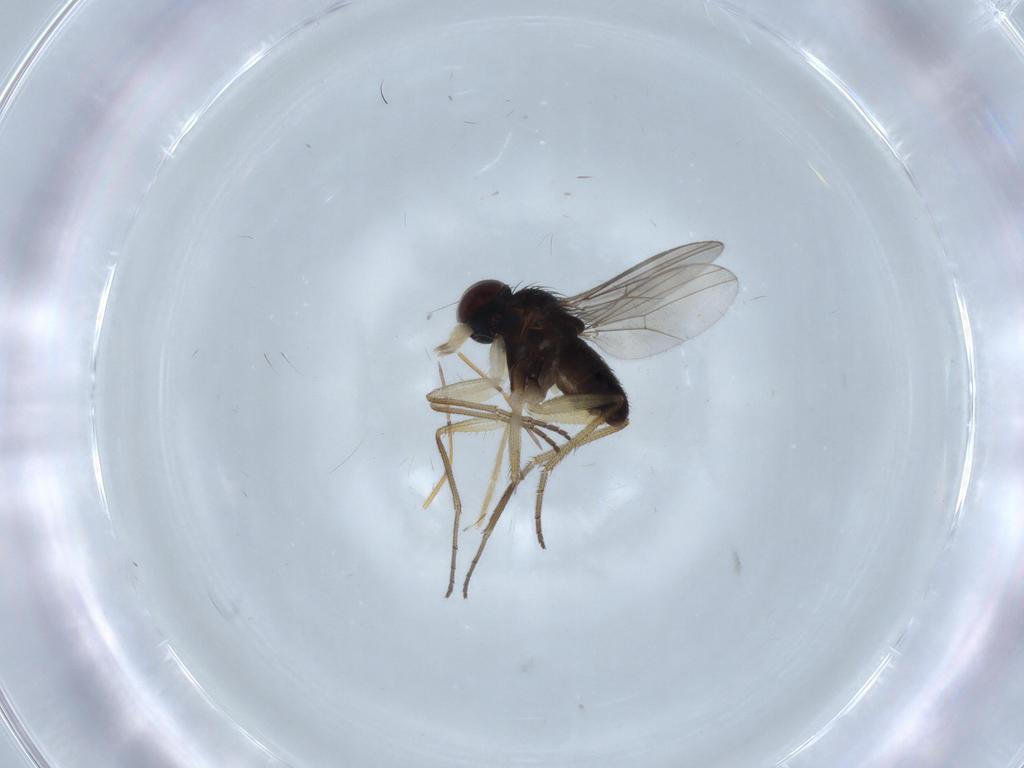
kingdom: Animalia
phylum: Arthropoda
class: Insecta
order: Diptera
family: Dolichopodidae
